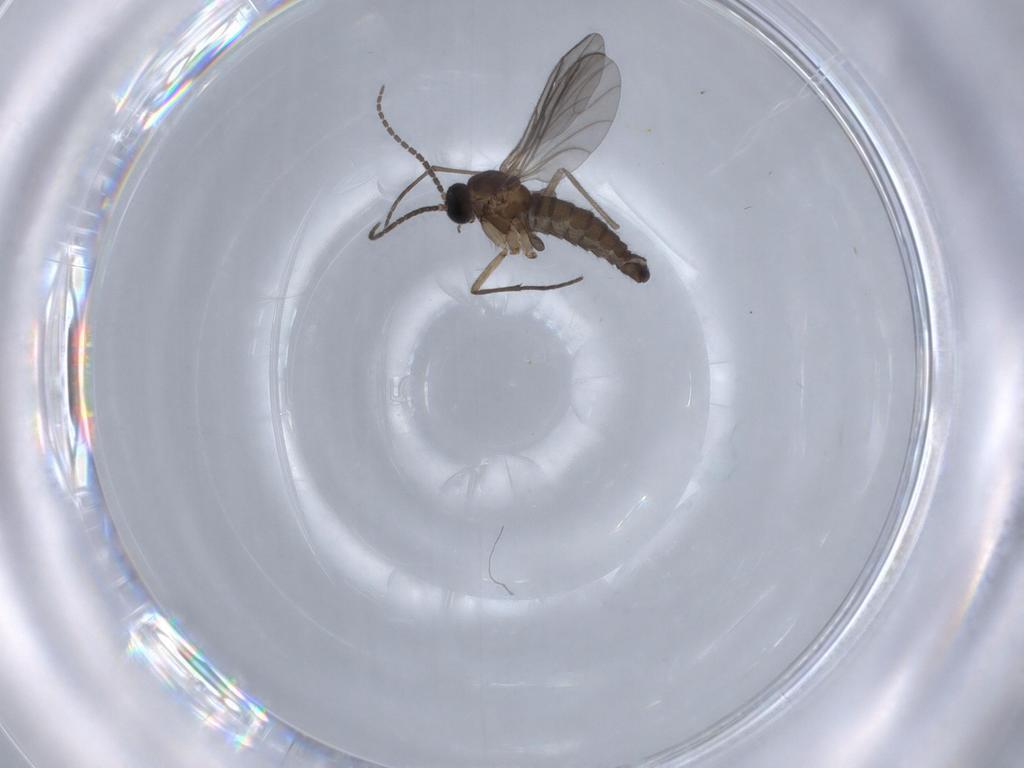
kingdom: Animalia
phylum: Arthropoda
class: Insecta
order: Diptera
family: Sciaridae
